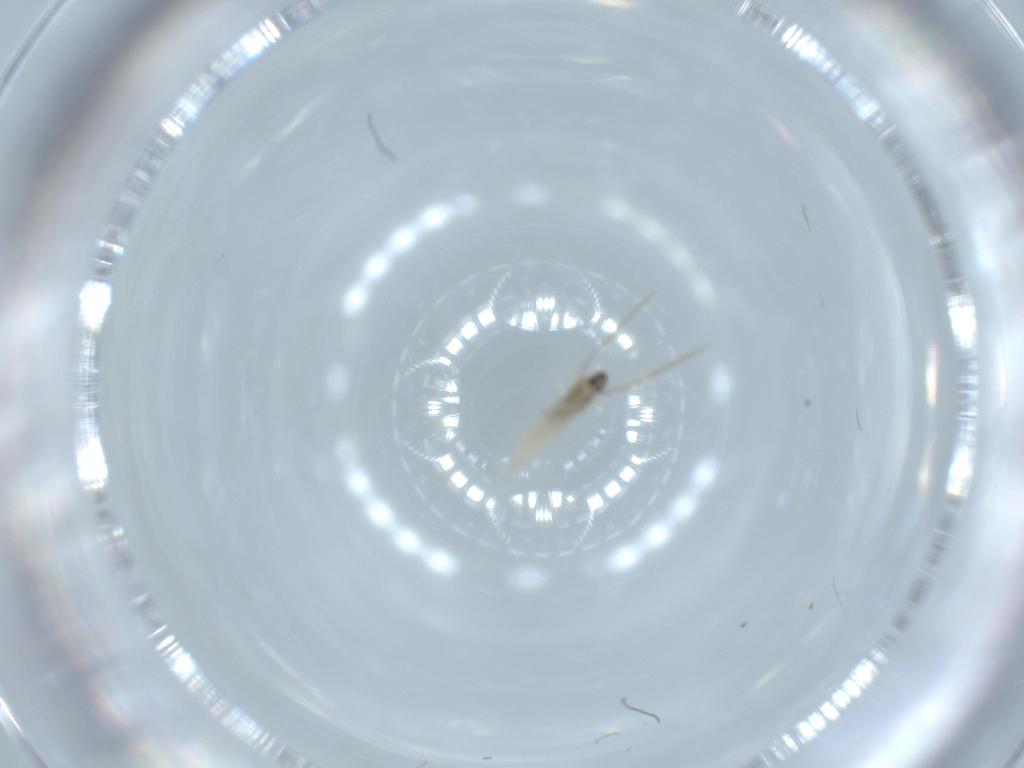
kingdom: Animalia
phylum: Arthropoda
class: Insecta
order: Diptera
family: Cecidomyiidae
